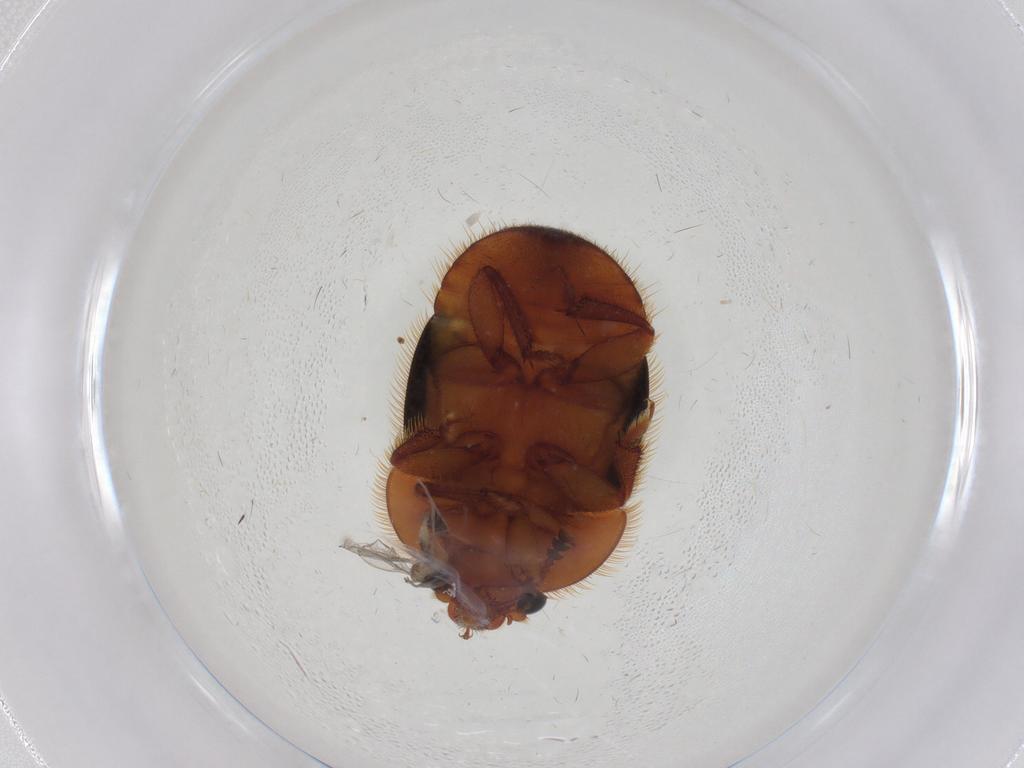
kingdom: Animalia
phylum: Arthropoda
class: Insecta
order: Coleoptera
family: Nitidulidae
